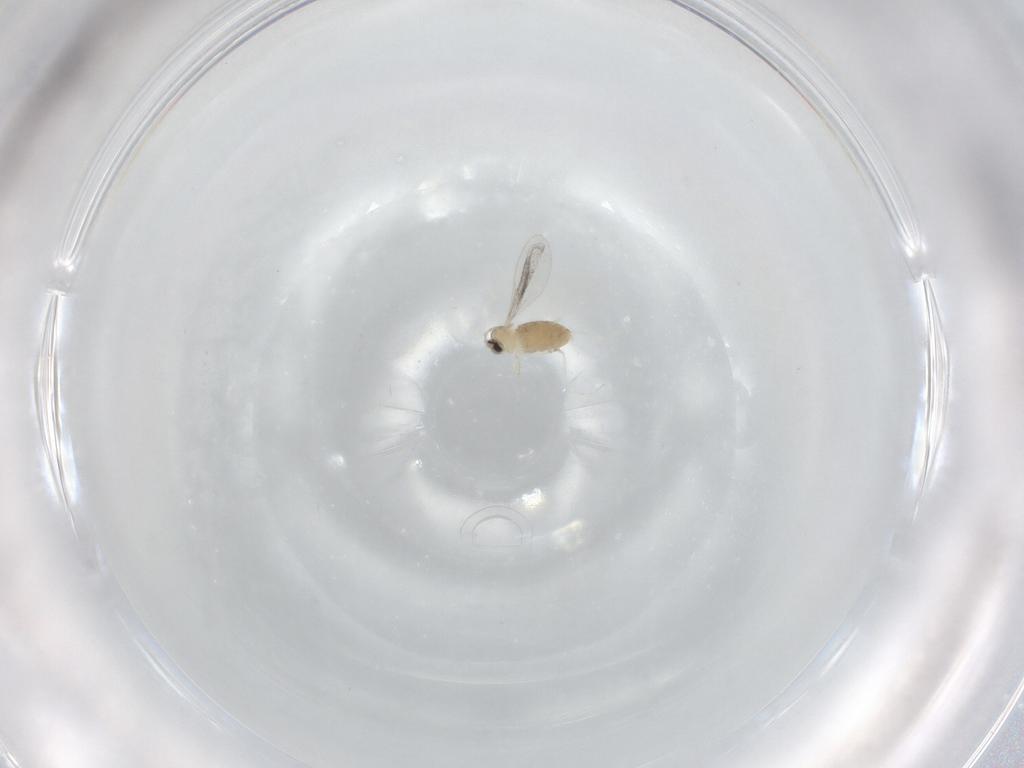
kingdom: Animalia
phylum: Arthropoda
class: Insecta
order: Diptera
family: Cecidomyiidae
